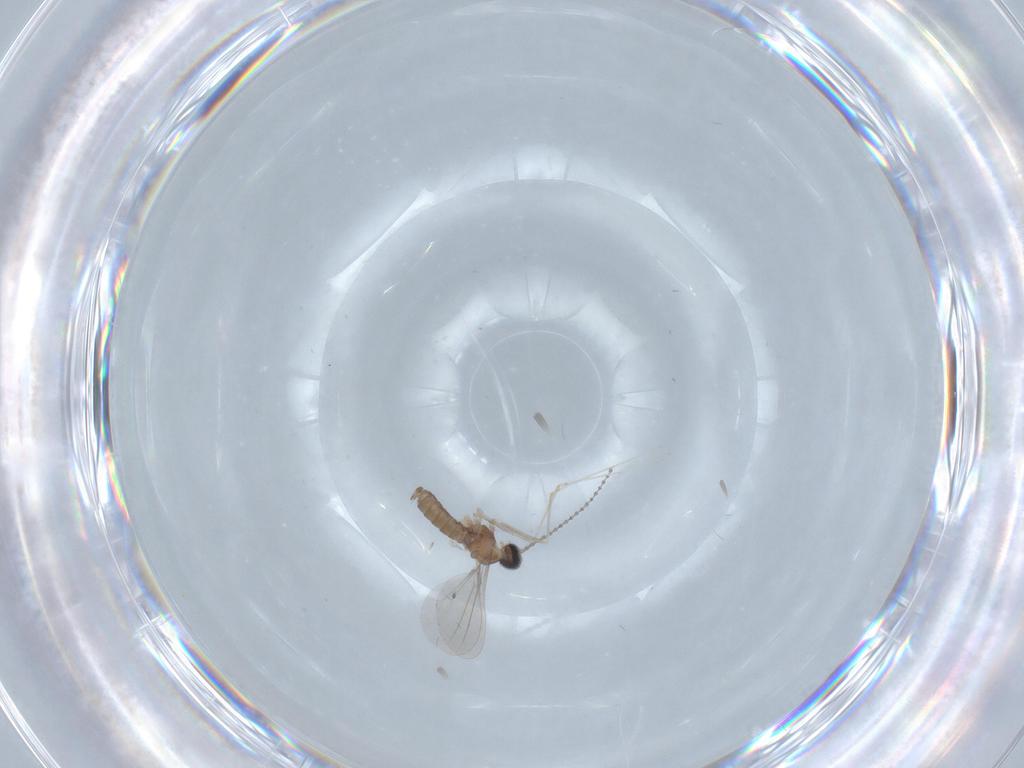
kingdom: Animalia
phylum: Arthropoda
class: Insecta
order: Diptera
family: Cecidomyiidae
